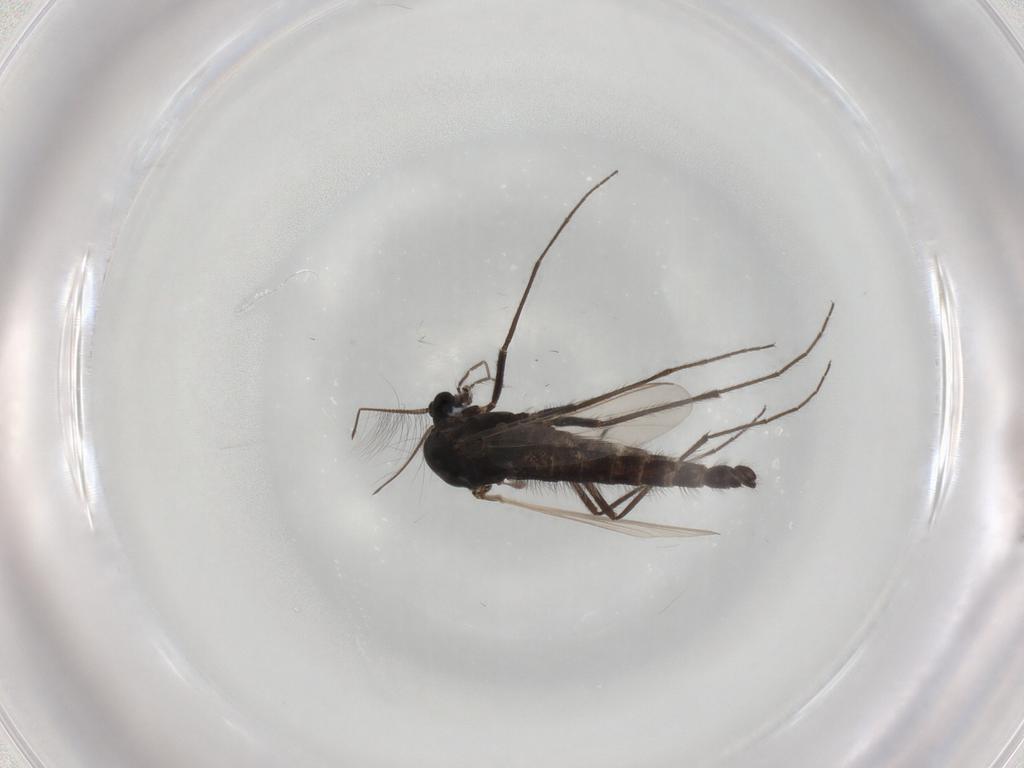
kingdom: Animalia
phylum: Arthropoda
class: Insecta
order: Diptera
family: Chironomidae
